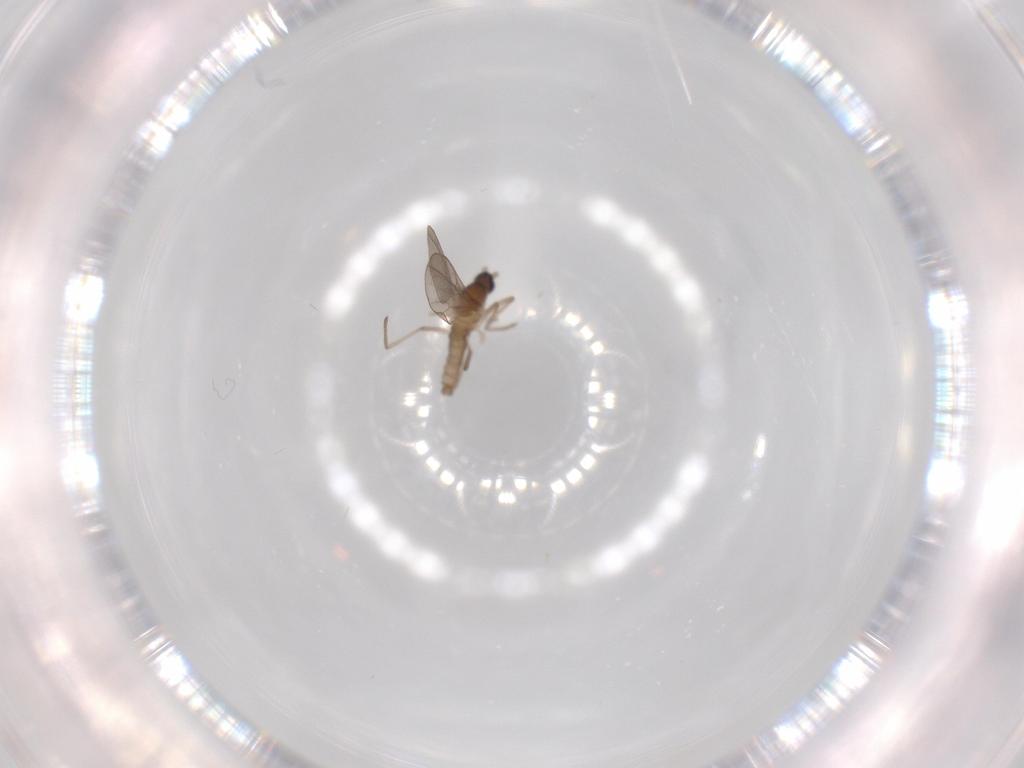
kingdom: Animalia
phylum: Arthropoda
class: Insecta
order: Diptera
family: Cecidomyiidae
